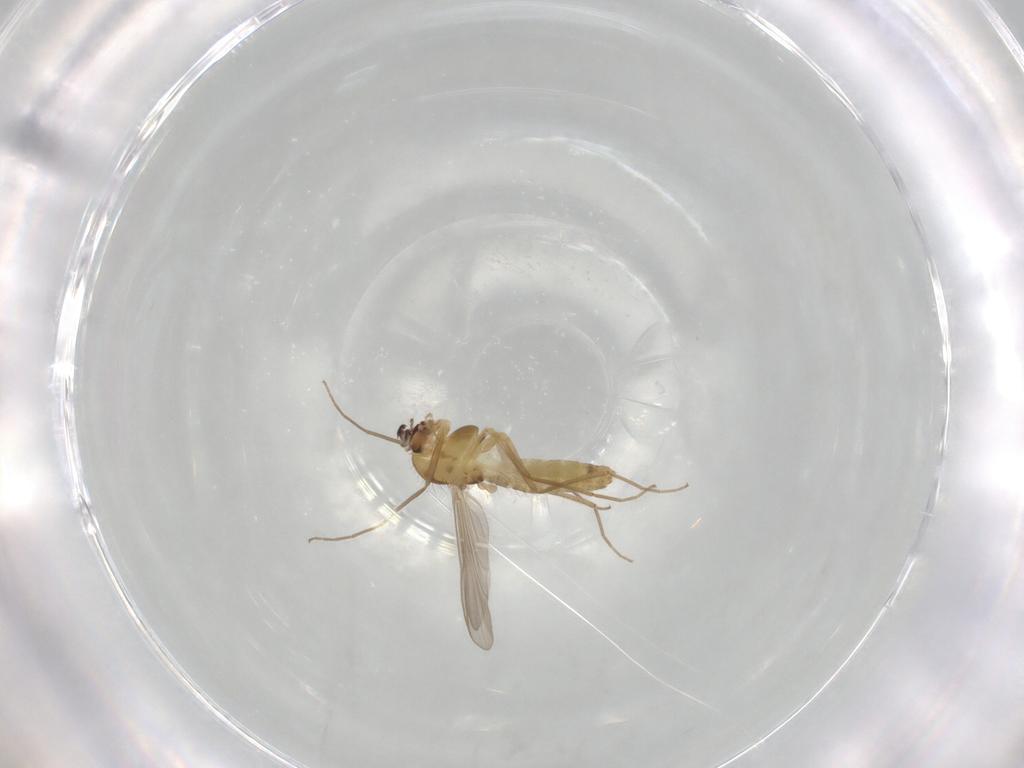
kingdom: Animalia
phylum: Arthropoda
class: Insecta
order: Diptera
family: Chironomidae
